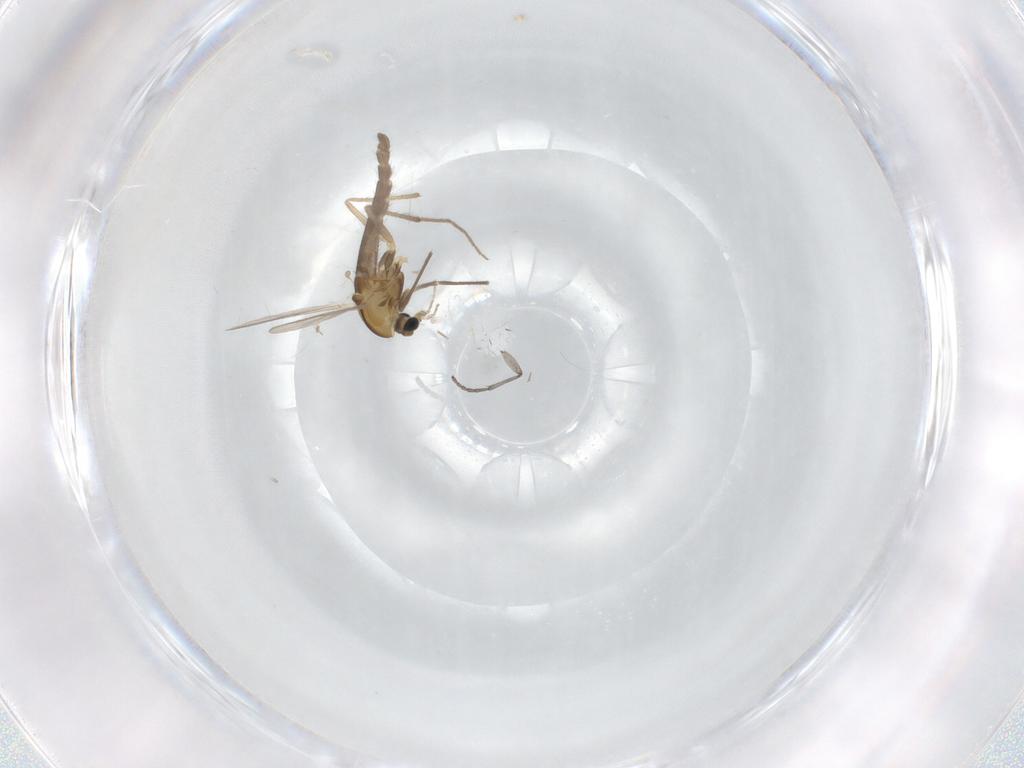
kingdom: Animalia
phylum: Arthropoda
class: Insecta
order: Diptera
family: Chironomidae
